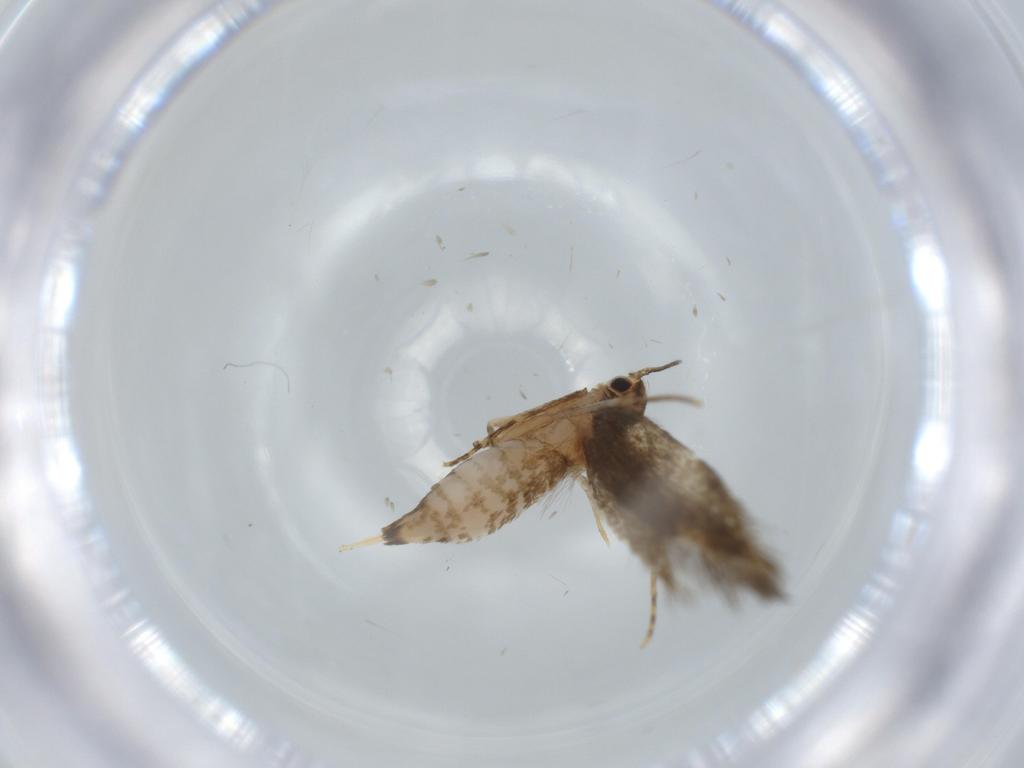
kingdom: Animalia
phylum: Arthropoda
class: Insecta
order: Lepidoptera
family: Tineidae
